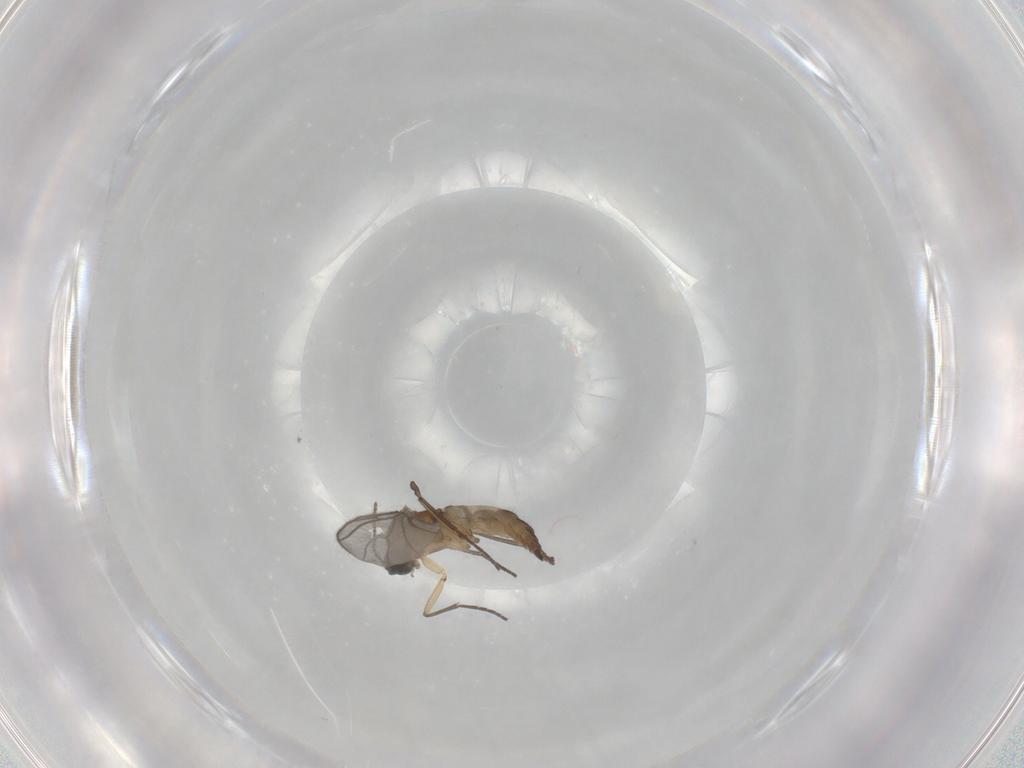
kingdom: Animalia
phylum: Arthropoda
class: Insecta
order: Diptera
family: Sciaridae
